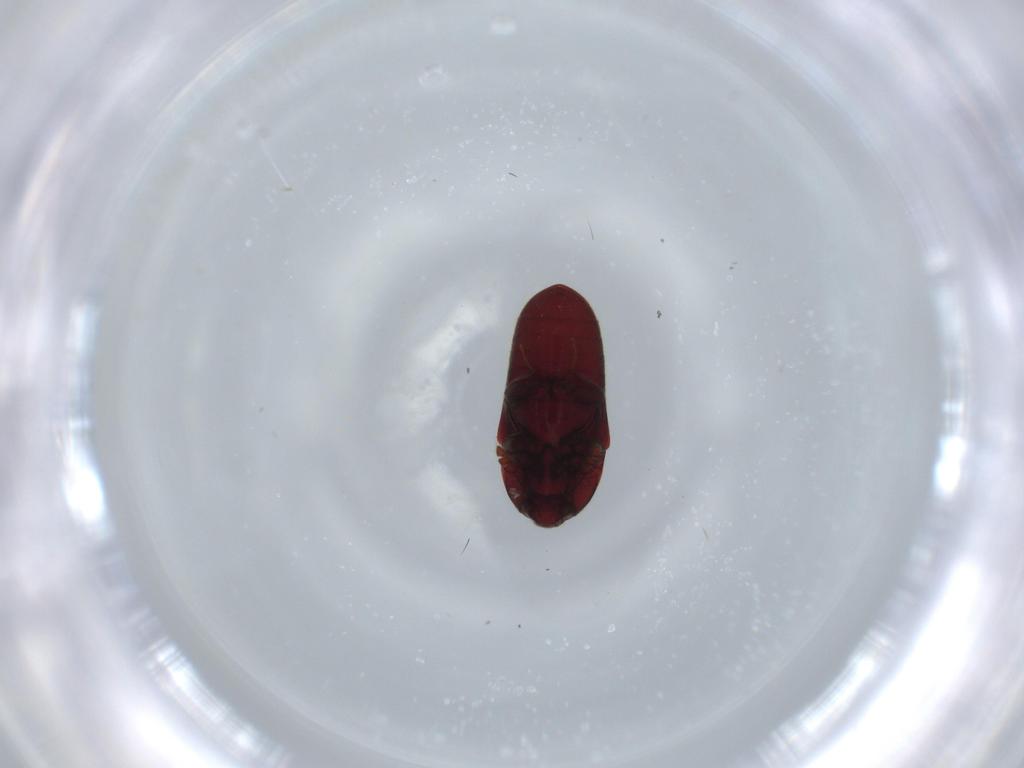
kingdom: Animalia
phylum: Arthropoda
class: Insecta
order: Coleoptera
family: Throscidae
